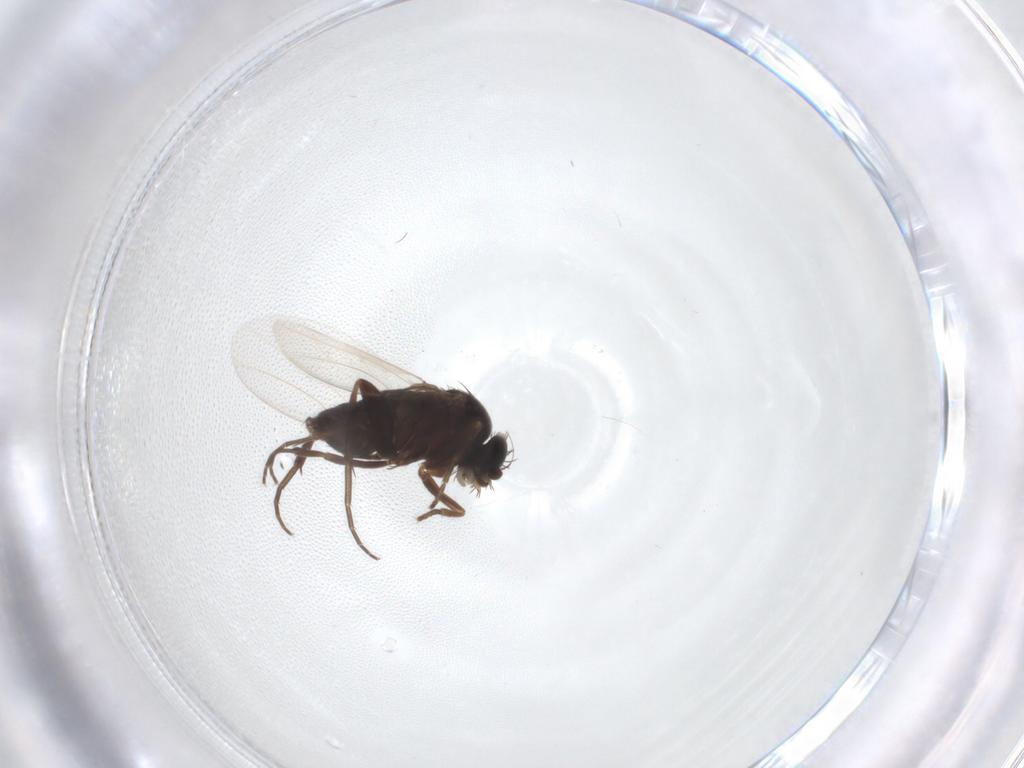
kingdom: Animalia
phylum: Arthropoda
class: Insecta
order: Diptera
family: Phoridae
